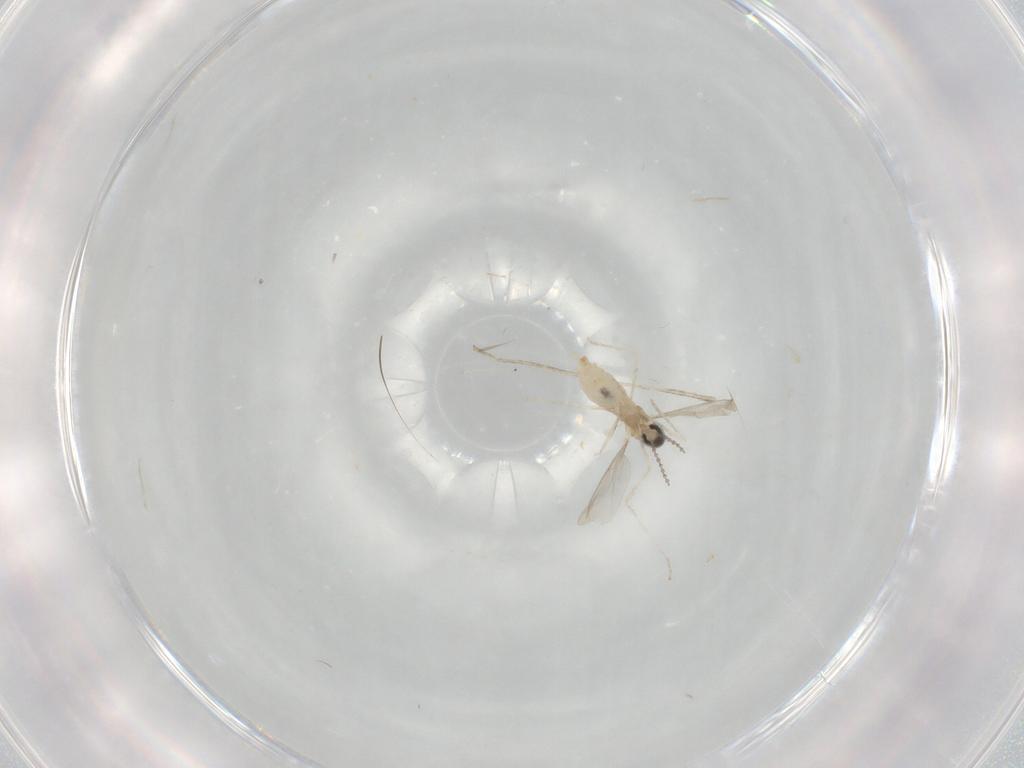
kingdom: Animalia
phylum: Arthropoda
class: Insecta
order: Diptera
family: Cecidomyiidae
